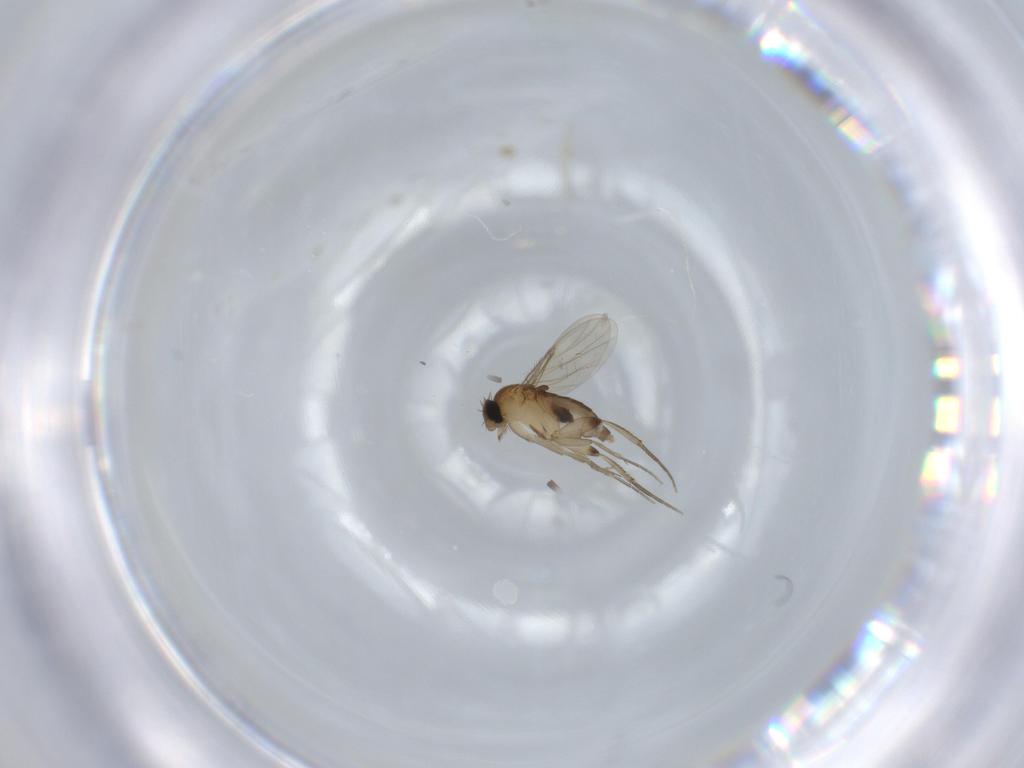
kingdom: Animalia
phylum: Arthropoda
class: Insecta
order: Diptera
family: Phoridae
